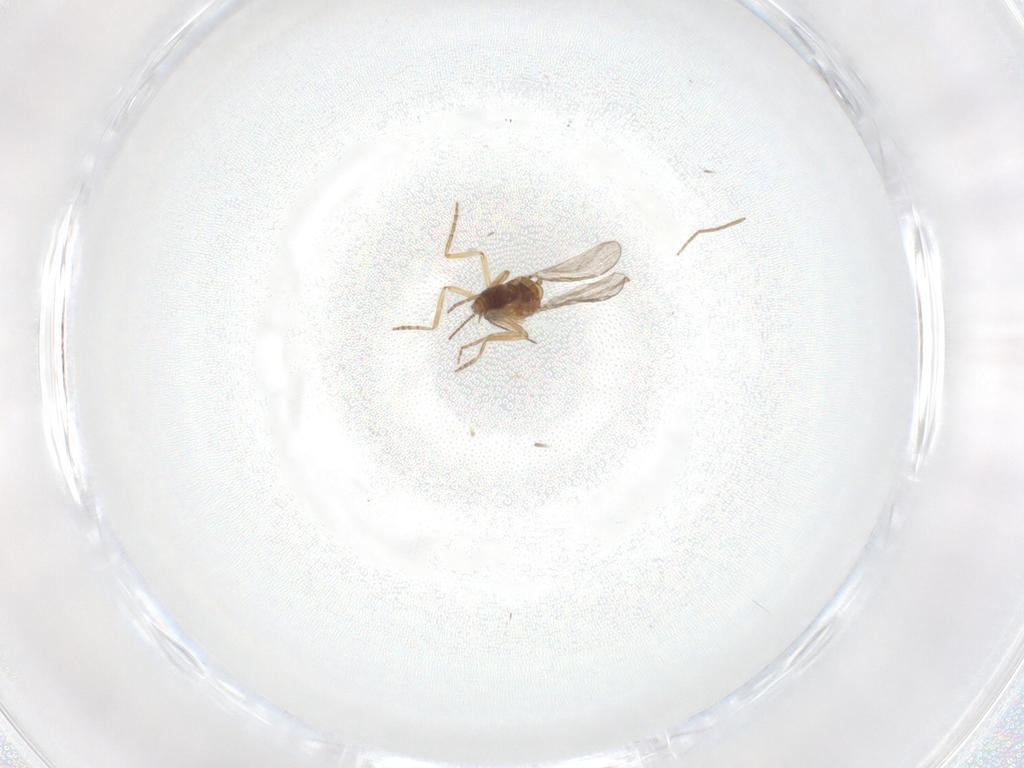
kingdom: Animalia
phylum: Arthropoda
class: Insecta
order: Diptera
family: Chironomidae
